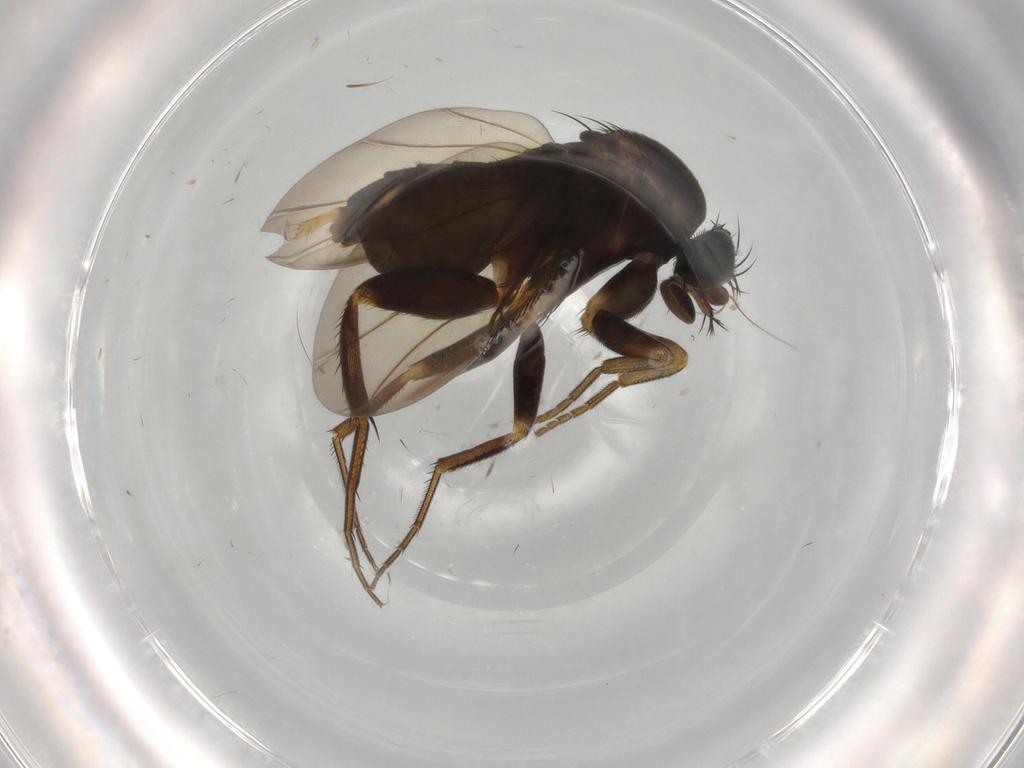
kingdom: Animalia
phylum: Arthropoda
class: Insecta
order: Diptera
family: Phoridae
